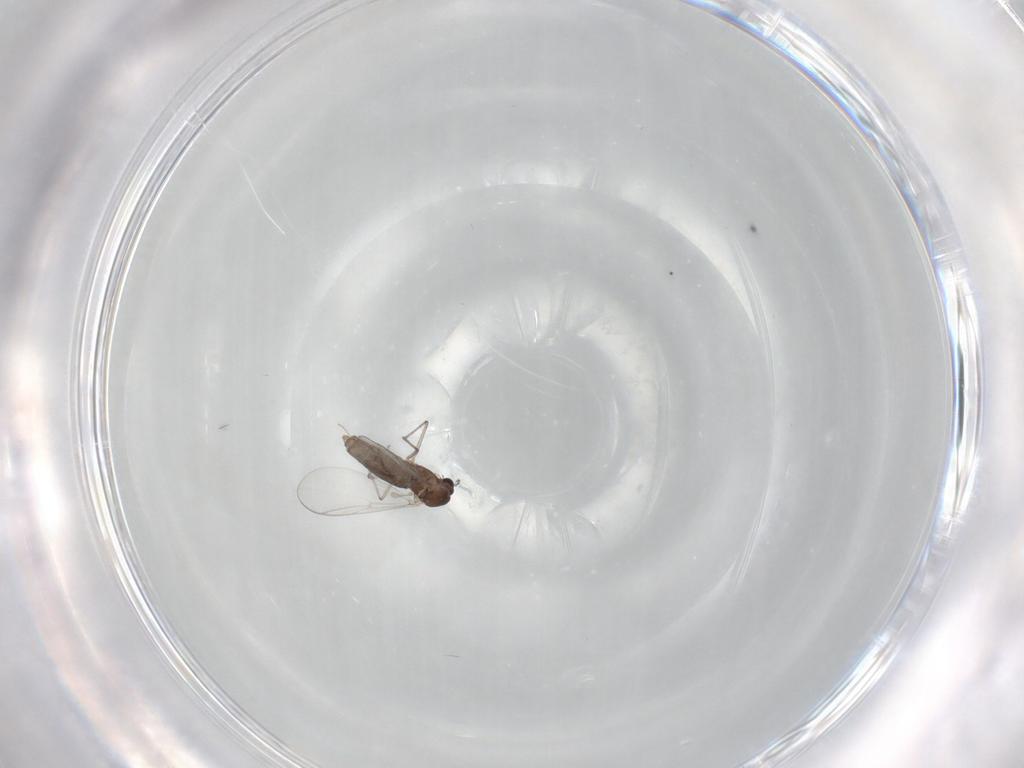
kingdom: Animalia
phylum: Arthropoda
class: Insecta
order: Diptera
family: Chironomidae
